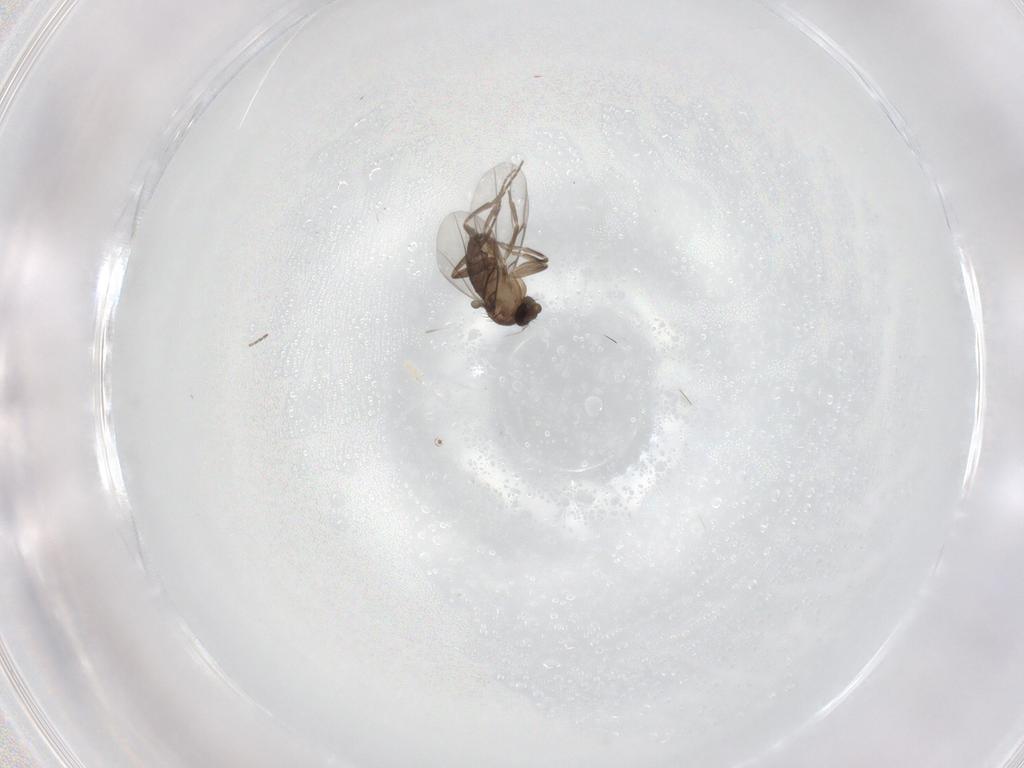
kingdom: Animalia
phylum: Arthropoda
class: Insecta
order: Diptera
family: Phoridae
